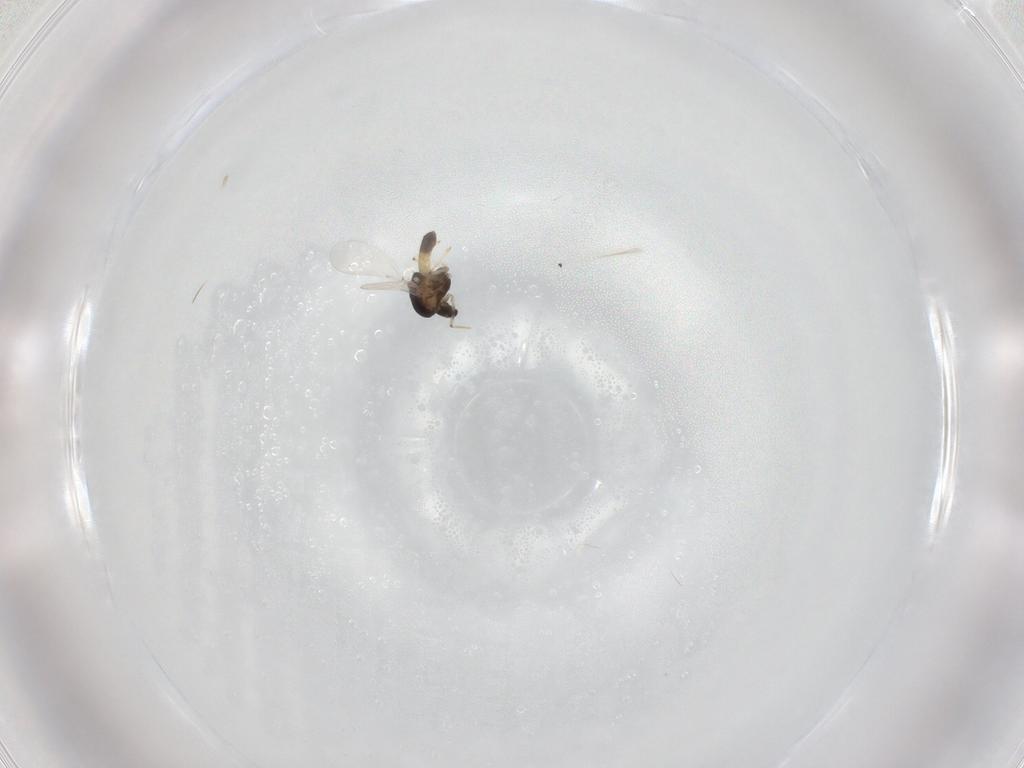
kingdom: Animalia
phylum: Arthropoda
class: Insecta
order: Diptera
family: Chironomidae
